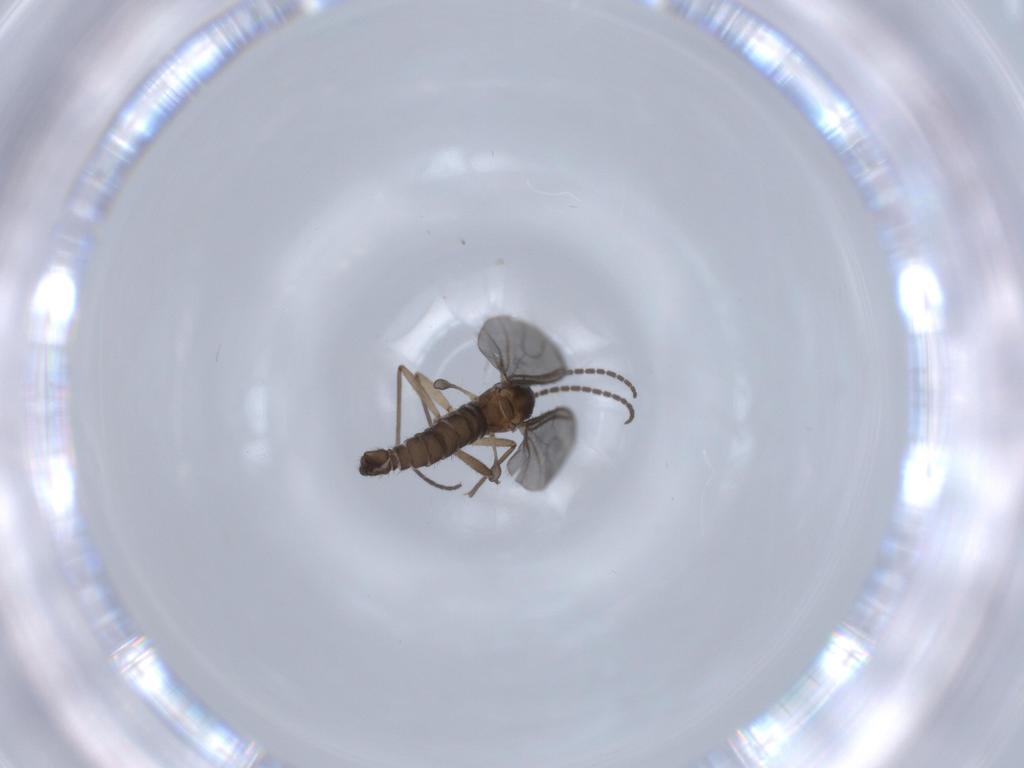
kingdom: Animalia
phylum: Arthropoda
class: Insecta
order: Diptera
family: Sciaridae
